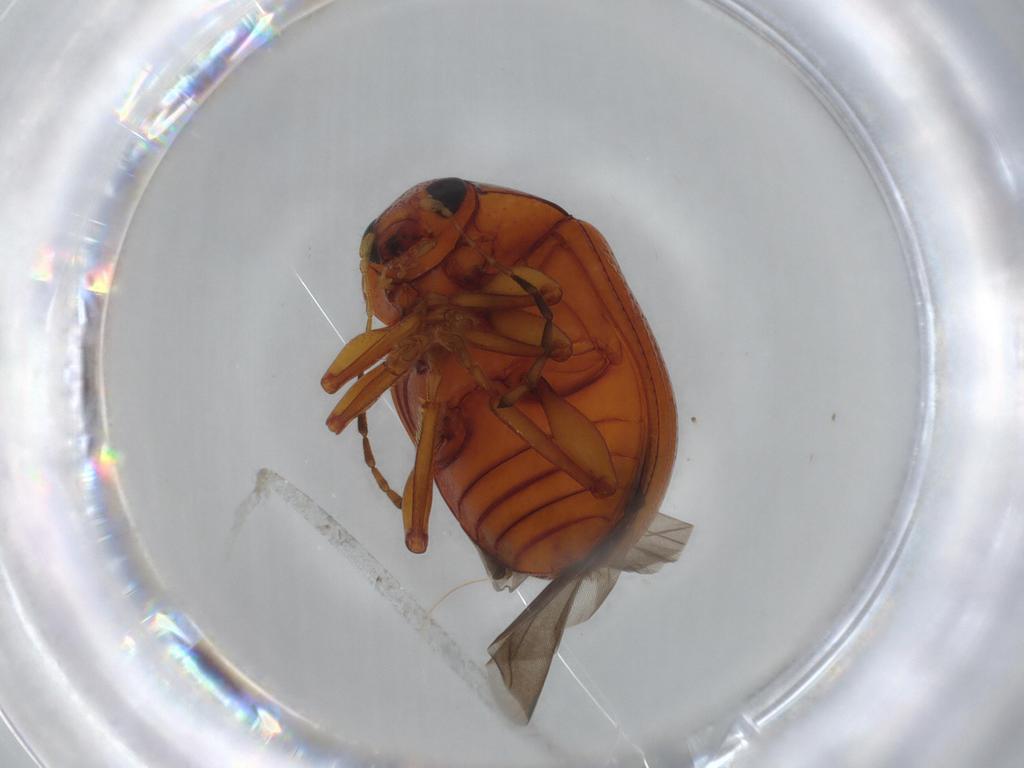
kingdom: Animalia
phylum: Arthropoda
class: Insecta
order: Coleoptera
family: Chrysomelidae
